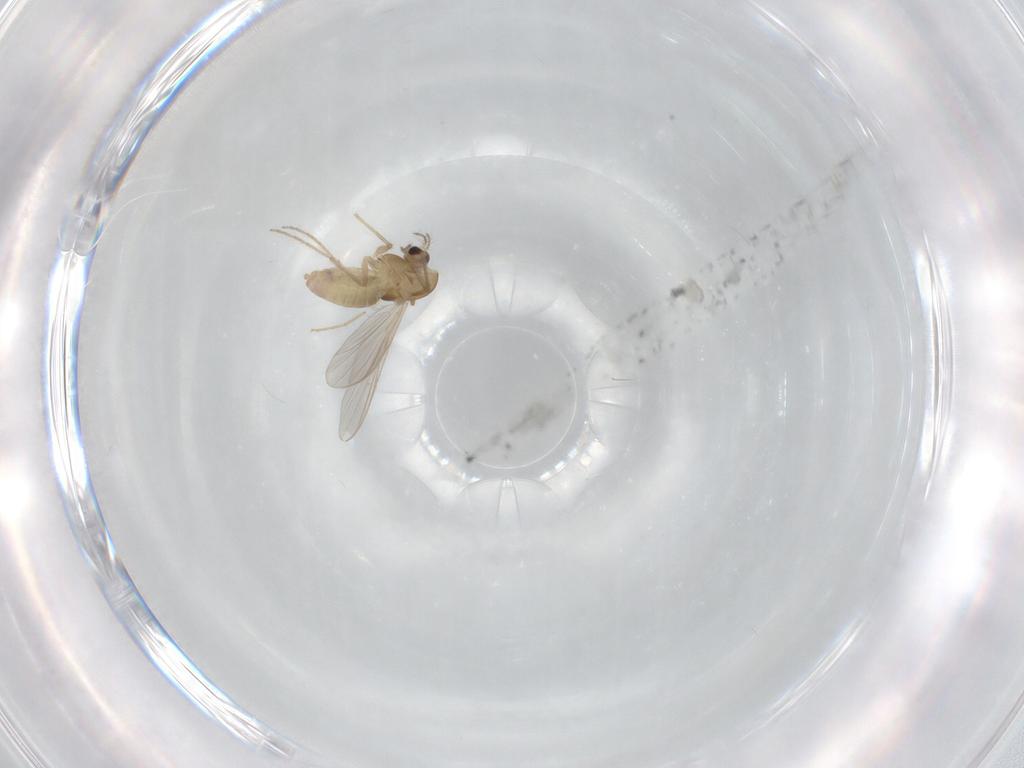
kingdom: Animalia
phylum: Arthropoda
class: Insecta
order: Diptera
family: Chironomidae
